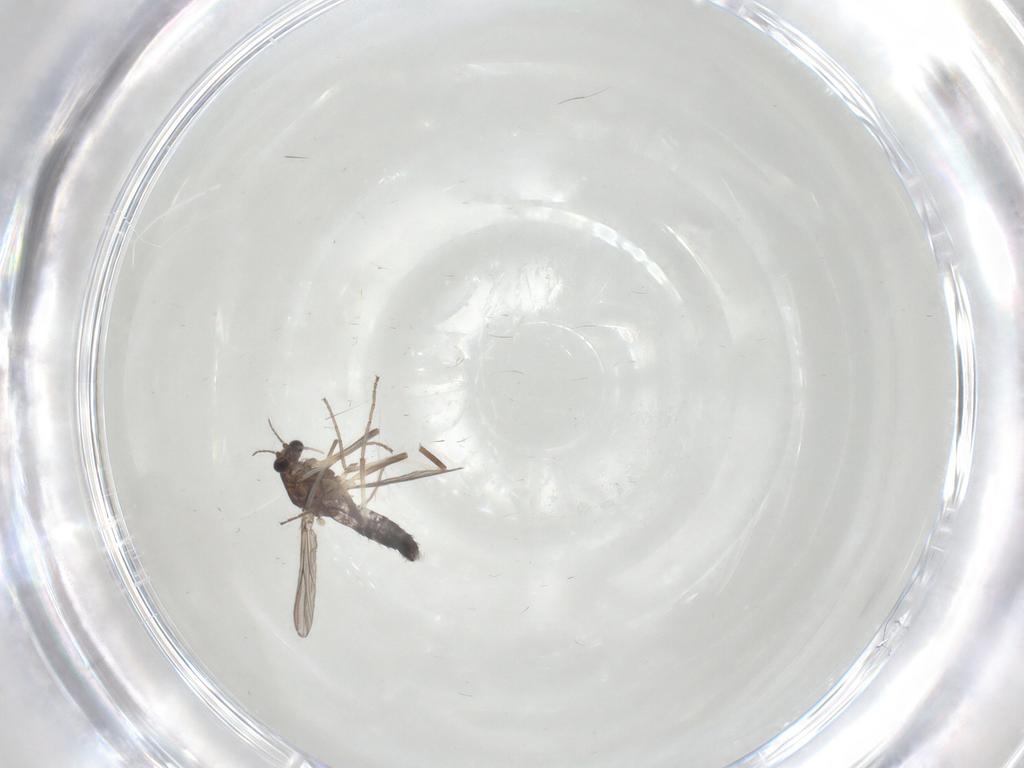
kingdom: Animalia
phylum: Arthropoda
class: Insecta
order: Diptera
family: Chironomidae
